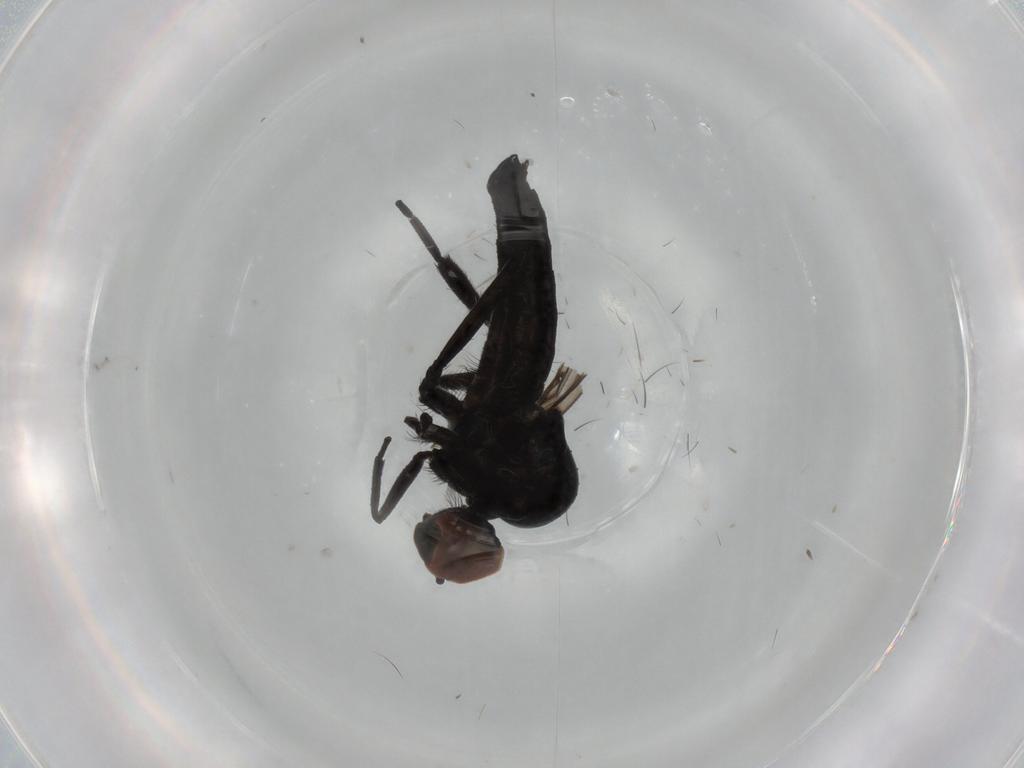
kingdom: Animalia
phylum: Arthropoda
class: Insecta
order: Diptera
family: Hybotidae
